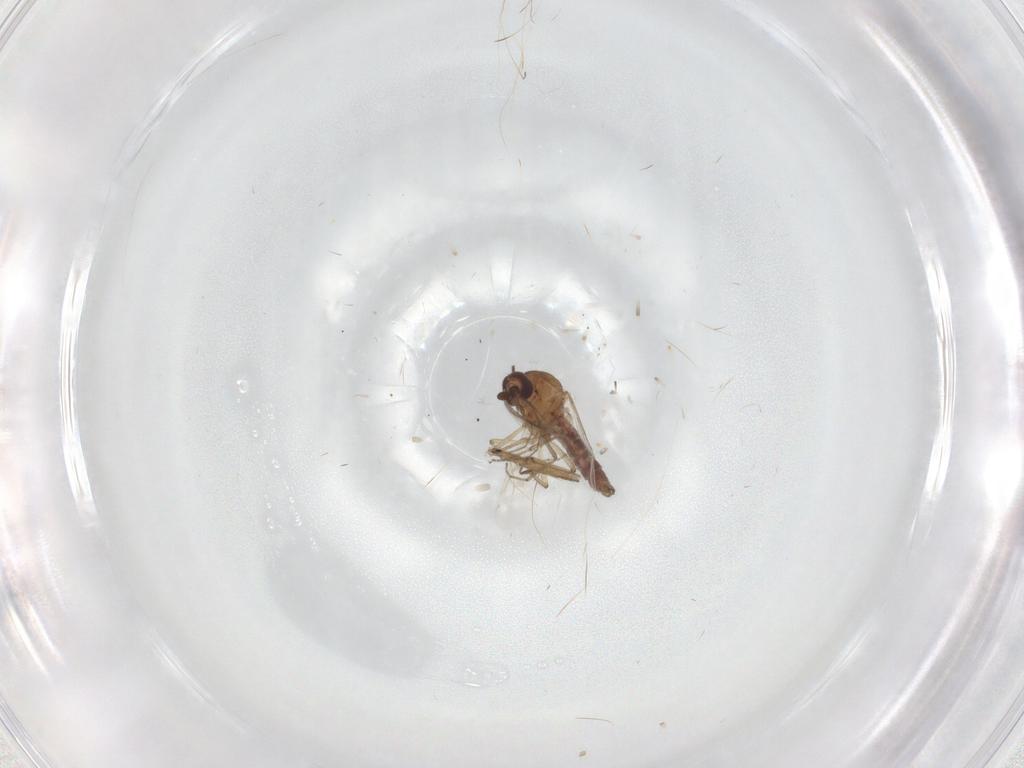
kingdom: Animalia
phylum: Arthropoda
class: Insecta
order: Diptera
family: Ceratopogonidae
